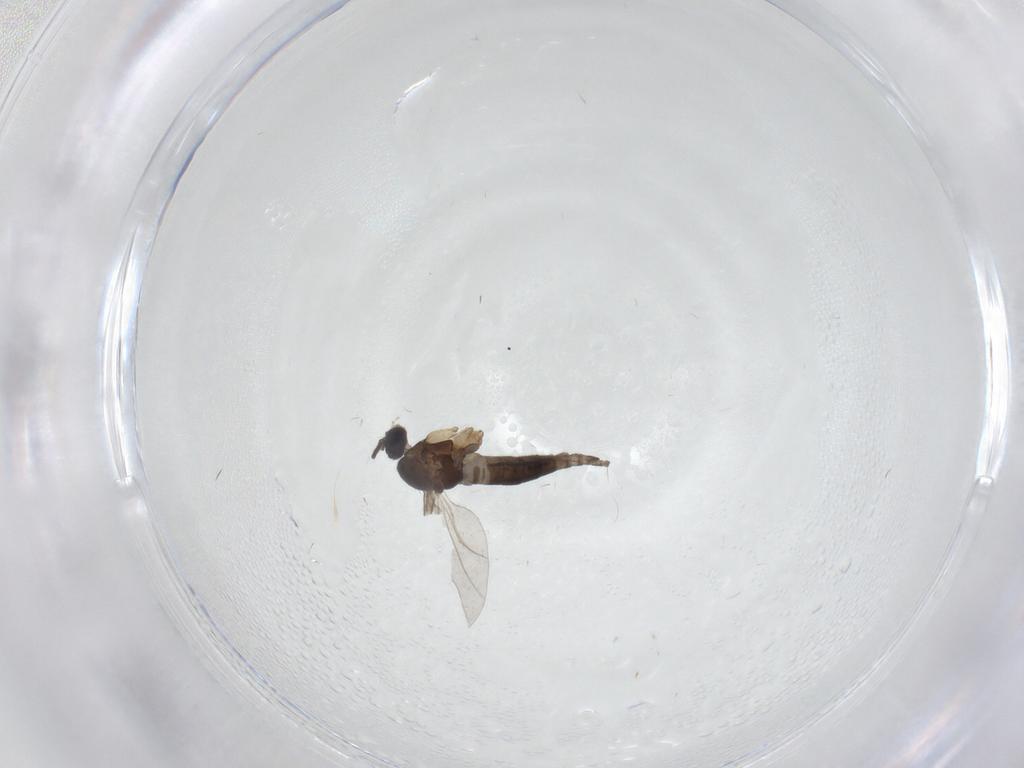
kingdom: Animalia
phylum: Arthropoda
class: Insecta
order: Diptera
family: Sciaridae
